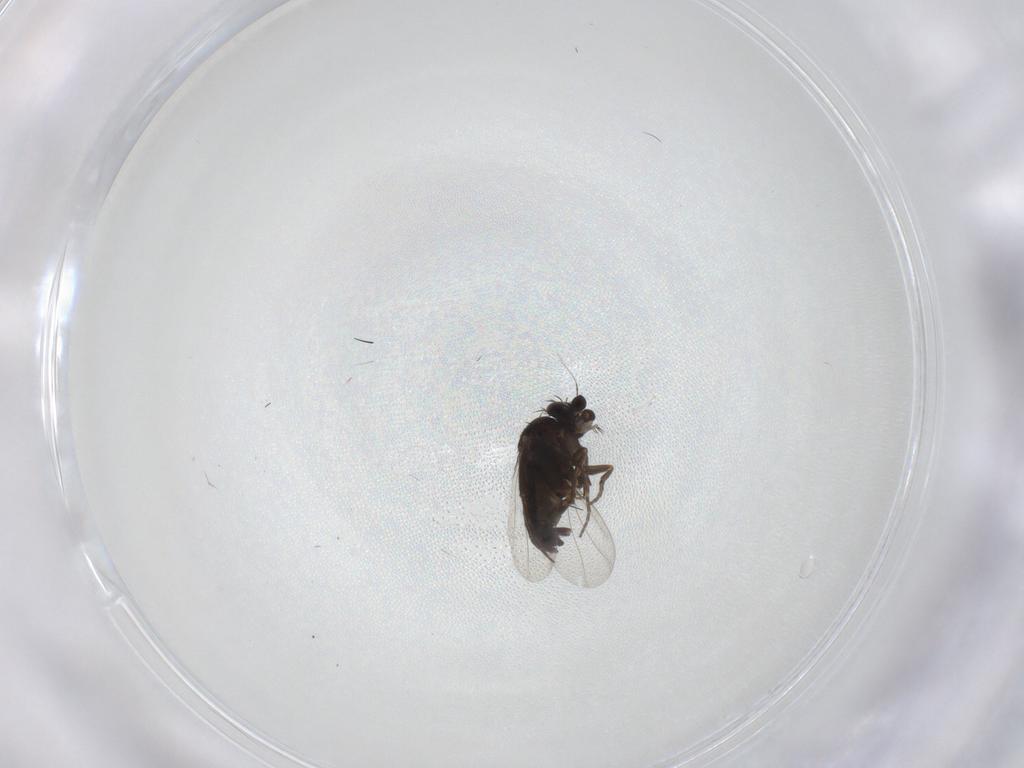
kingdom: Animalia
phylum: Arthropoda
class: Insecta
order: Diptera
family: Phoridae
